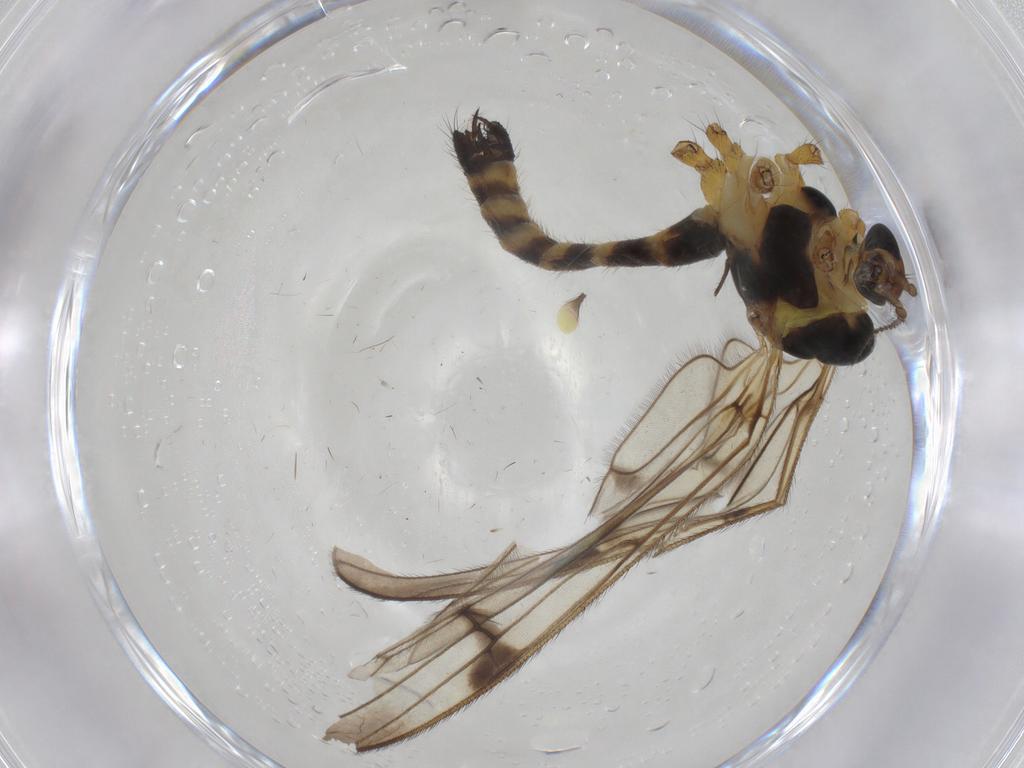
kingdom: Animalia
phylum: Arthropoda
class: Insecta
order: Diptera
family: Limoniidae
